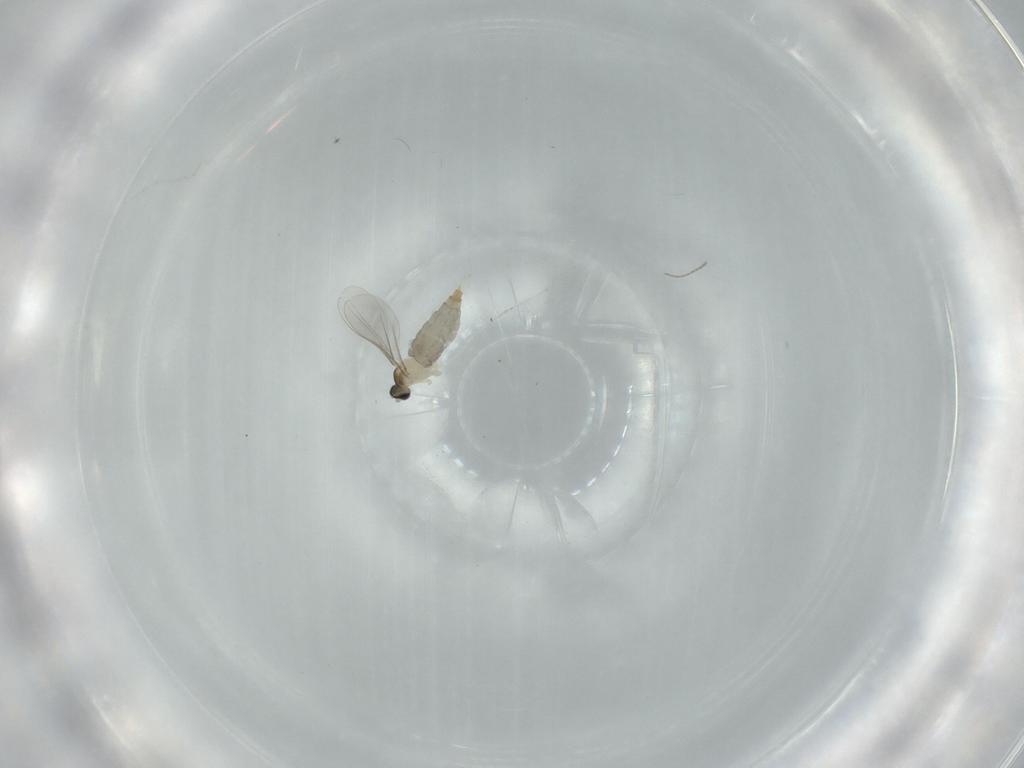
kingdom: Animalia
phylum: Arthropoda
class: Insecta
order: Diptera
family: Cecidomyiidae
